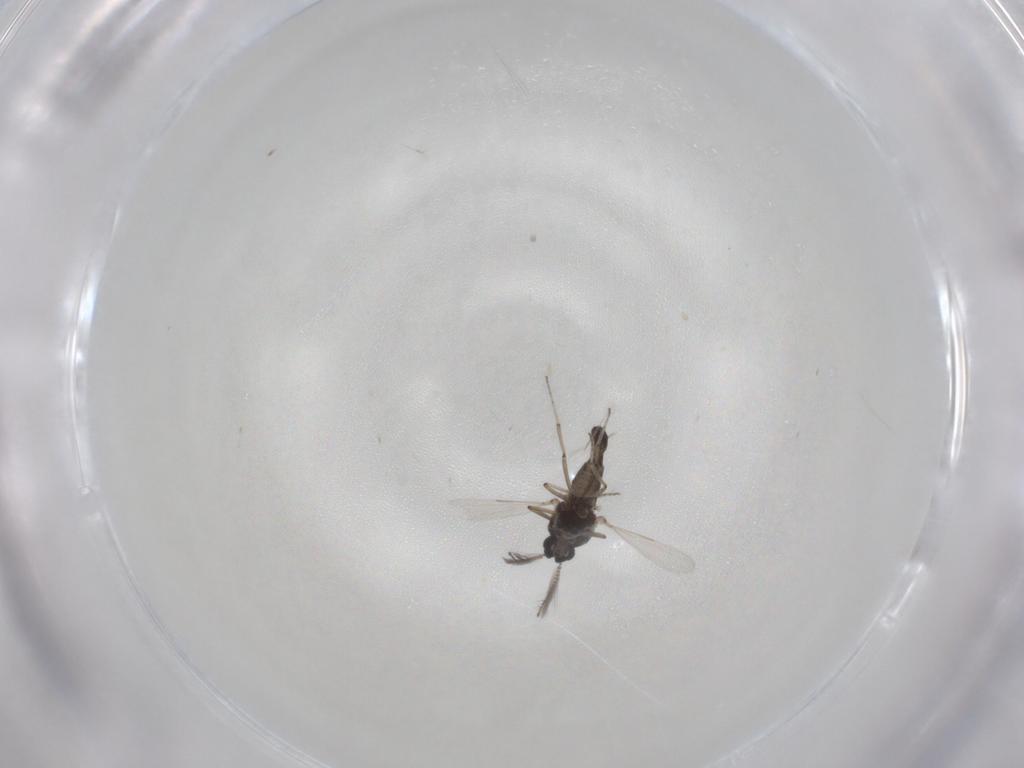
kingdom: Animalia
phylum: Arthropoda
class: Insecta
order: Diptera
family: Ceratopogonidae
